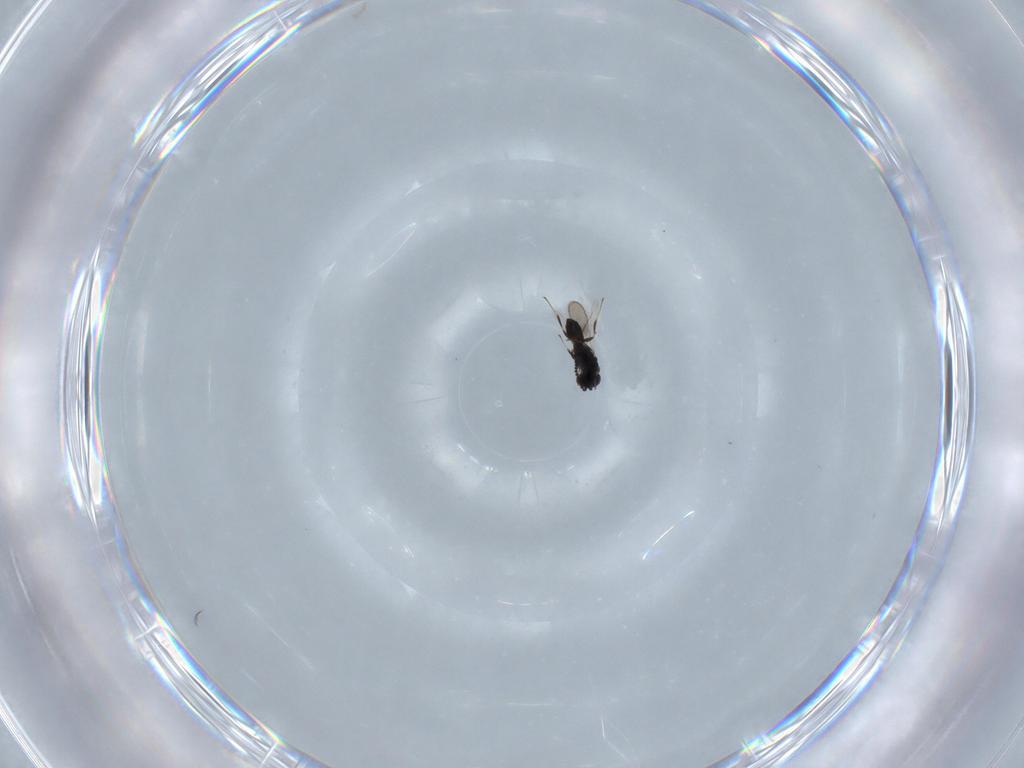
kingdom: Animalia
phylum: Arthropoda
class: Insecta
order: Hymenoptera
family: Scelionidae
